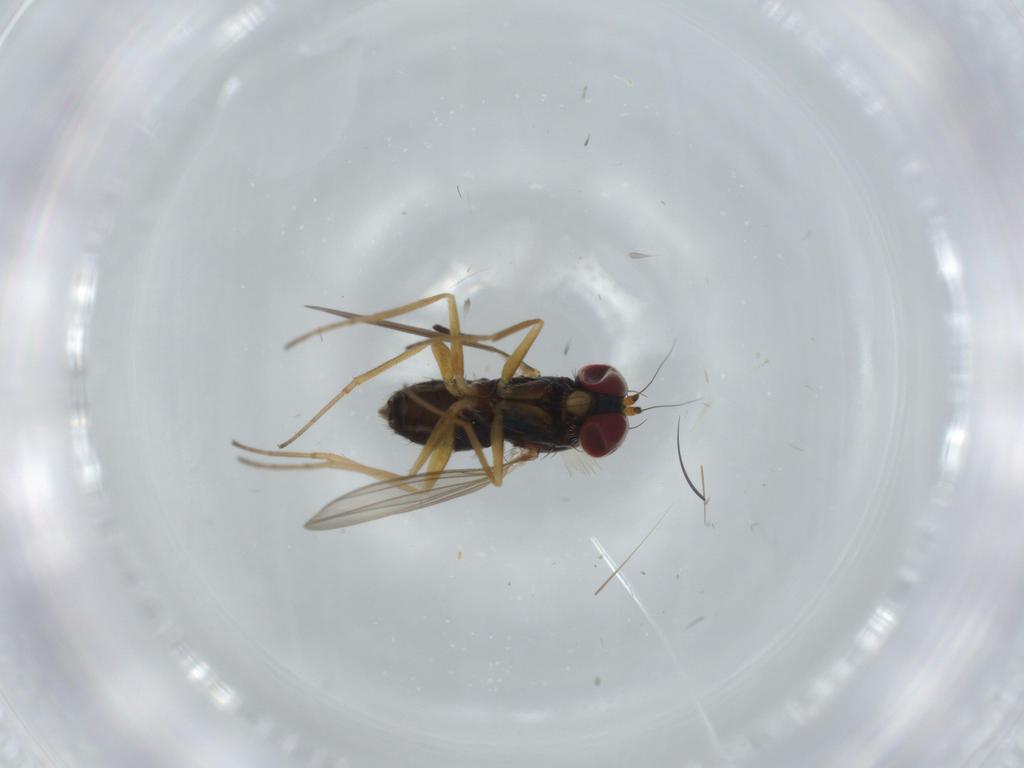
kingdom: Animalia
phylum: Arthropoda
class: Insecta
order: Diptera
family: Dolichopodidae
